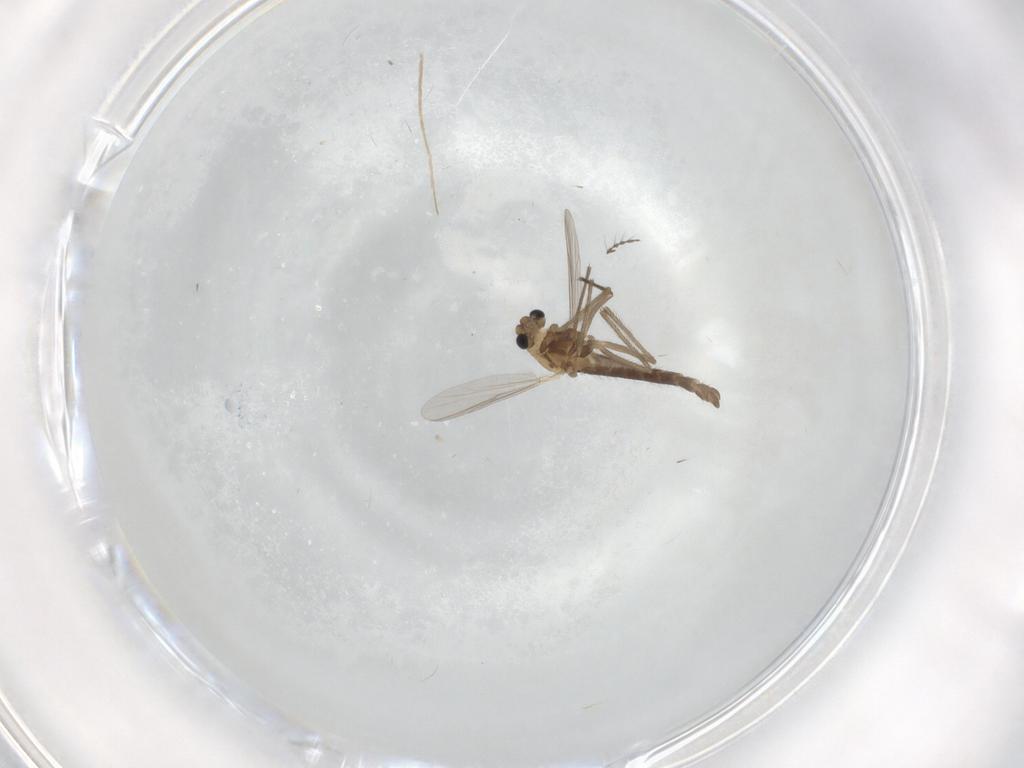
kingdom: Animalia
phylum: Arthropoda
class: Insecta
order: Diptera
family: Chironomidae
